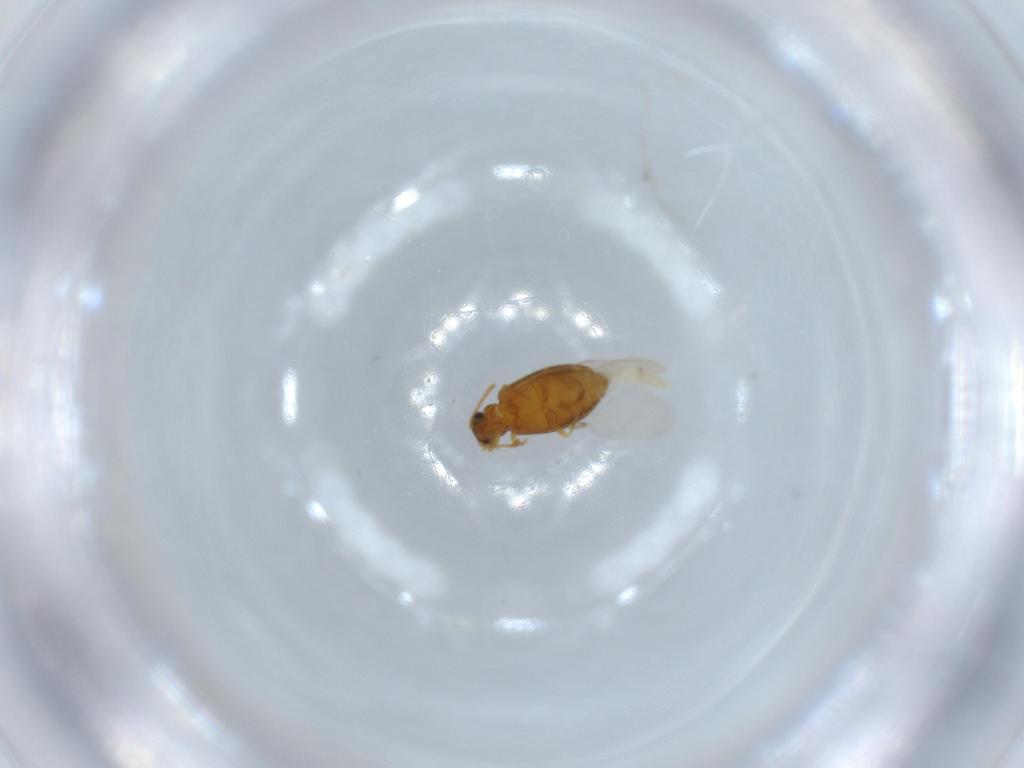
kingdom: Animalia
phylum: Arthropoda
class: Insecta
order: Coleoptera
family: Aderidae
